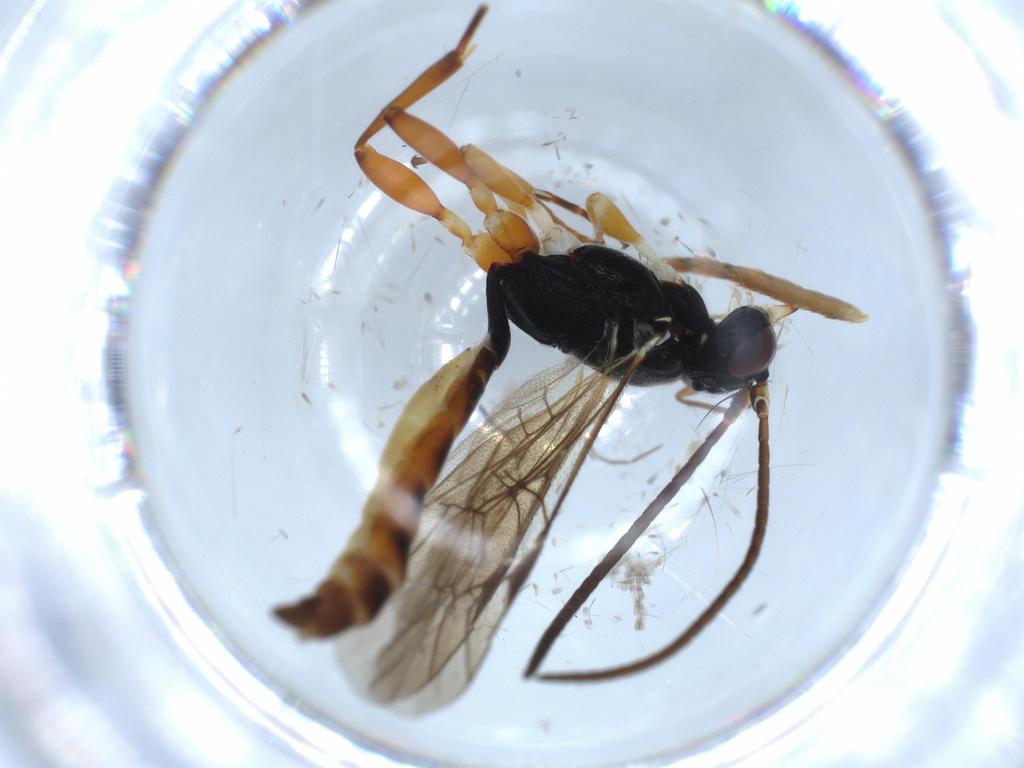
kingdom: Animalia
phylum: Arthropoda
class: Insecta
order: Hymenoptera
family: Ichneumonidae
